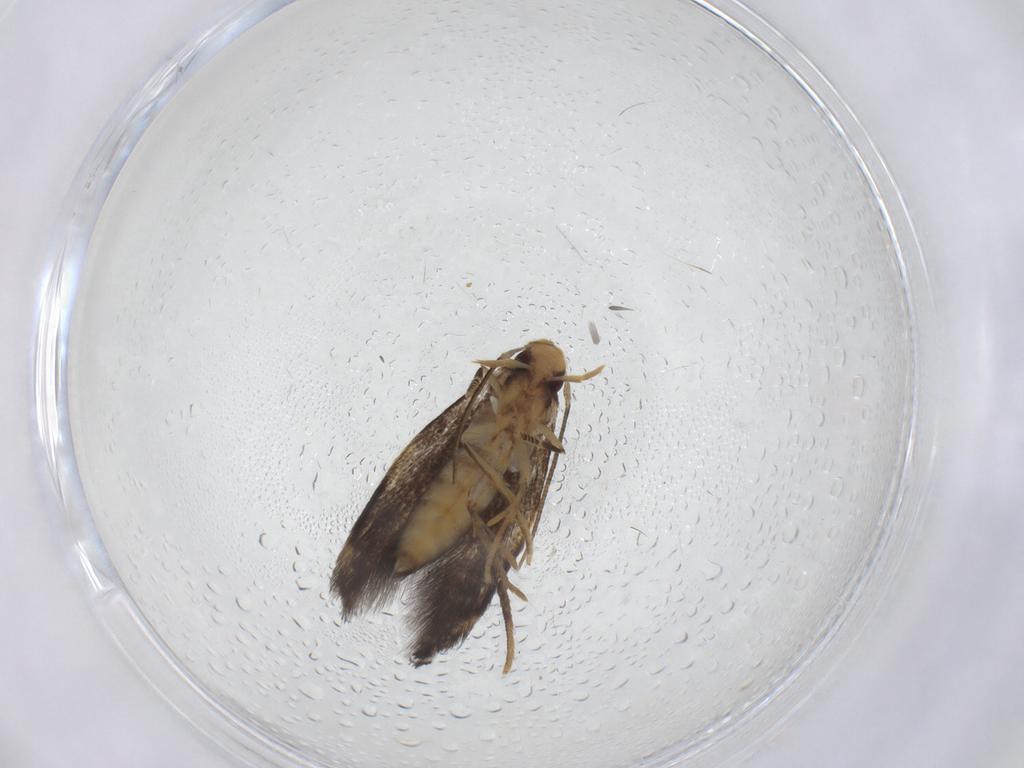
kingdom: Animalia
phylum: Arthropoda
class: Insecta
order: Lepidoptera
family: Gelechiidae
